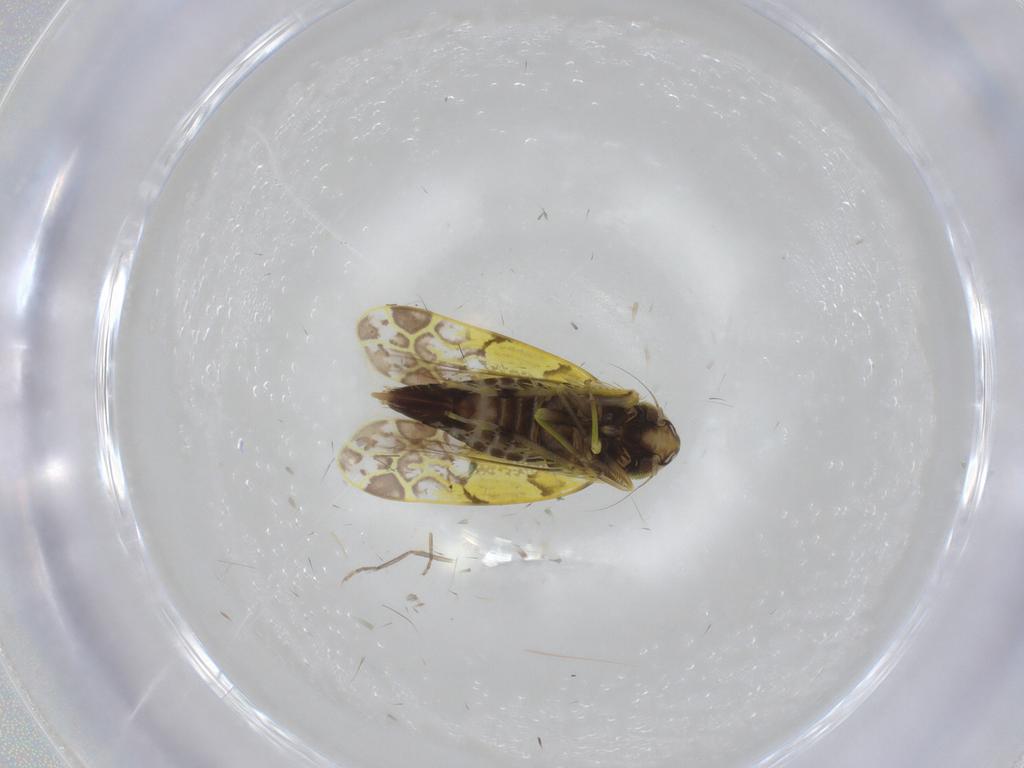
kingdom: Animalia
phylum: Arthropoda
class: Insecta
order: Hemiptera
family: Cicadellidae
